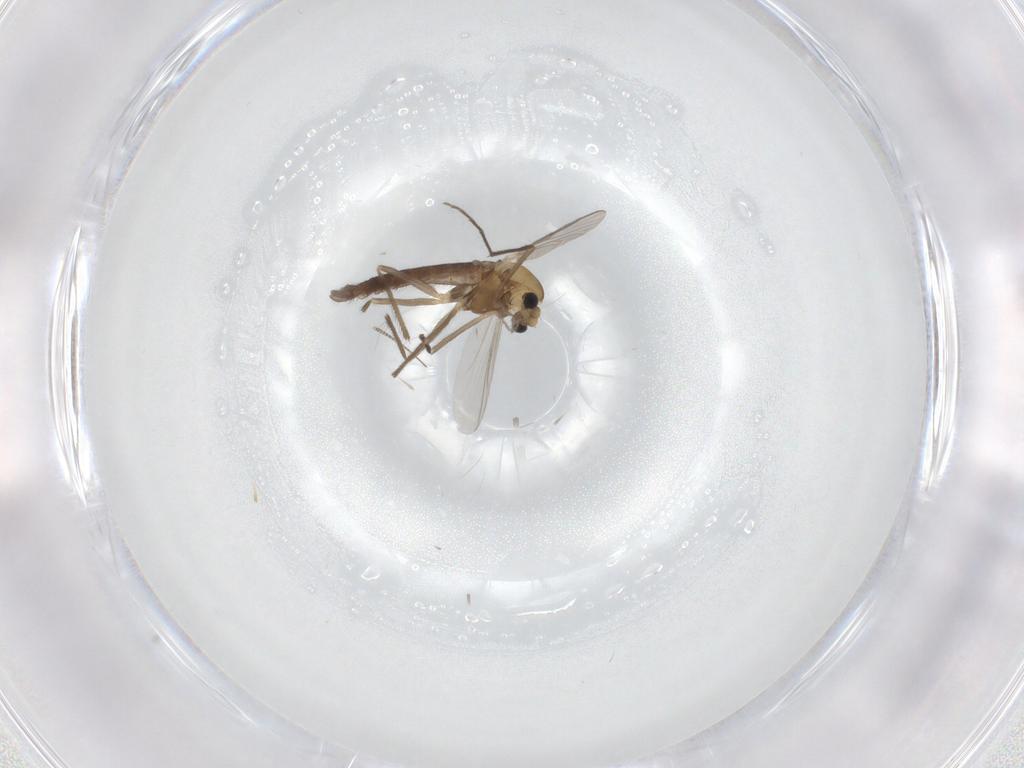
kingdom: Animalia
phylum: Arthropoda
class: Insecta
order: Diptera
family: Chironomidae
